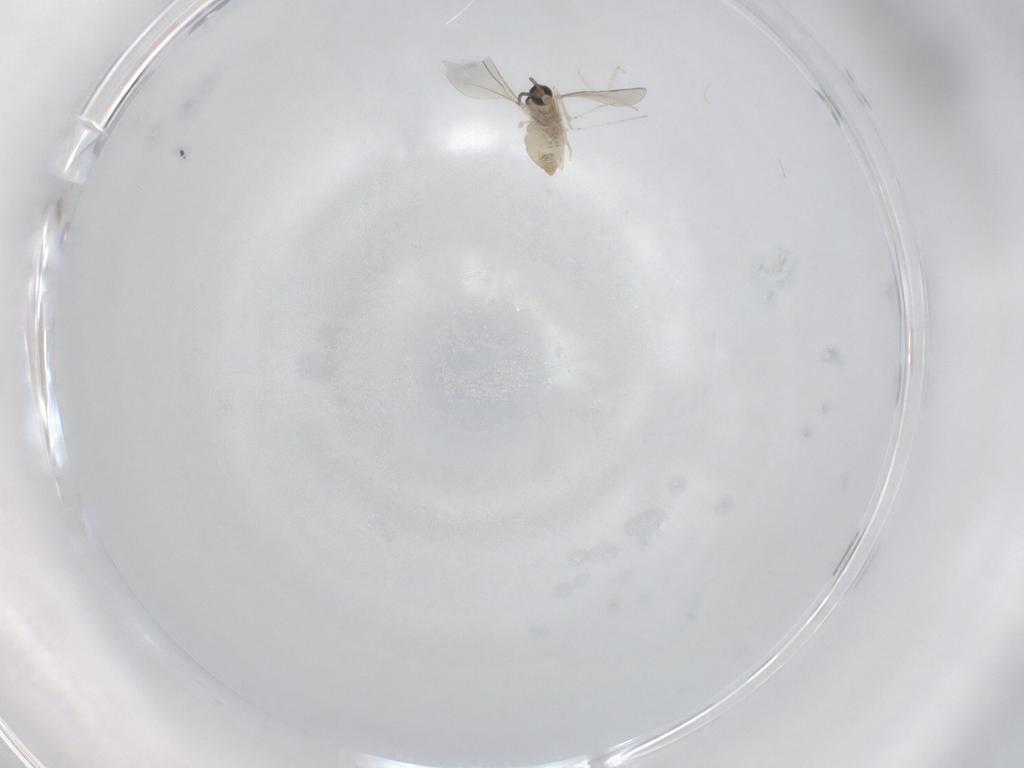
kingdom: Animalia
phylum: Arthropoda
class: Insecta
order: Diptera
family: Cecidomyiidae
